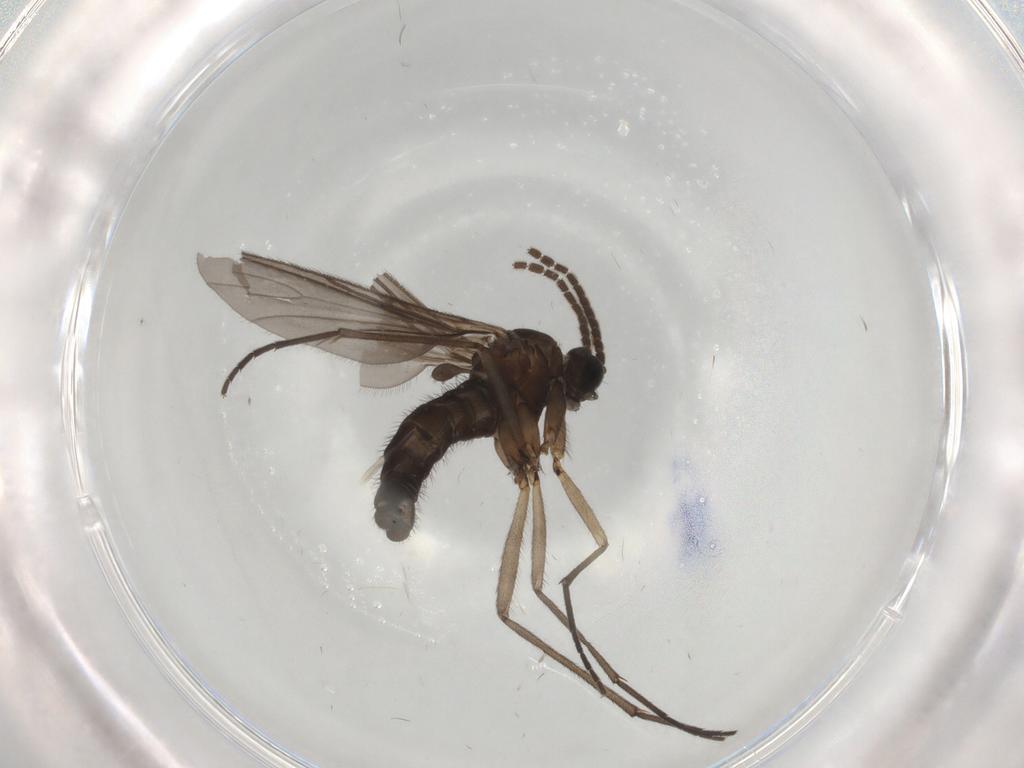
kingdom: Animalia
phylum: Arthropoda
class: Insecta
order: Diptera
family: Sciaridae
